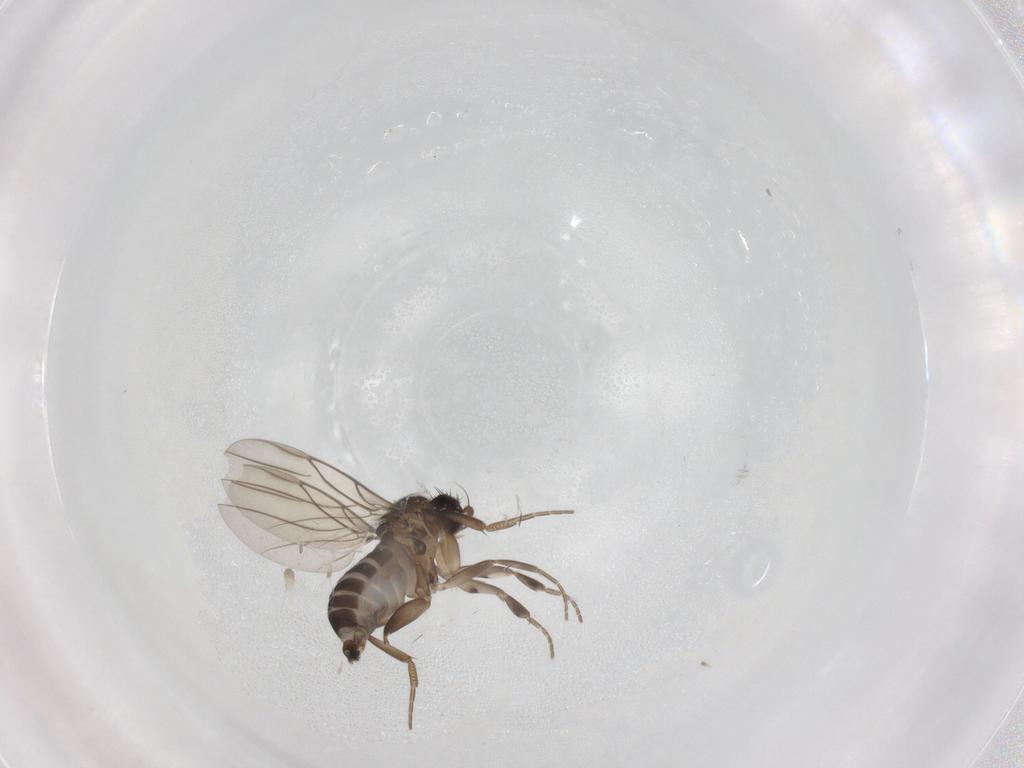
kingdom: Animalia
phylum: Arthropoda
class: Insecta
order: Diptera
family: Phoridae
